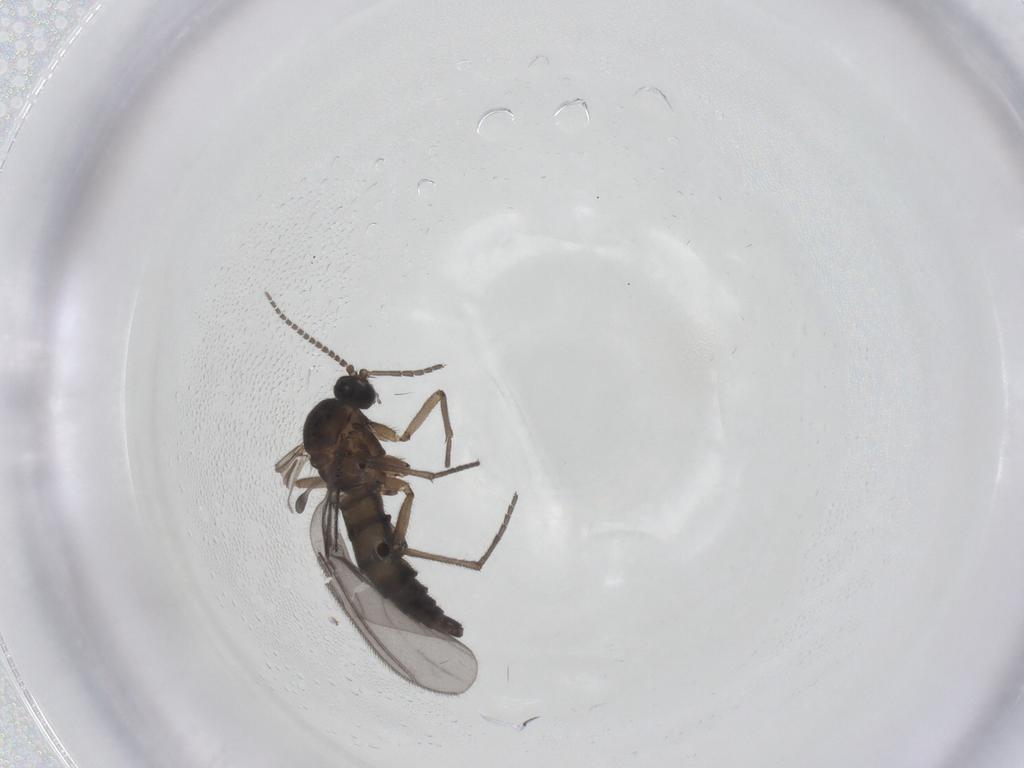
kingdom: Animalia
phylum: Arthropoda
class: Insecta
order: Diptera
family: Sciaridae
